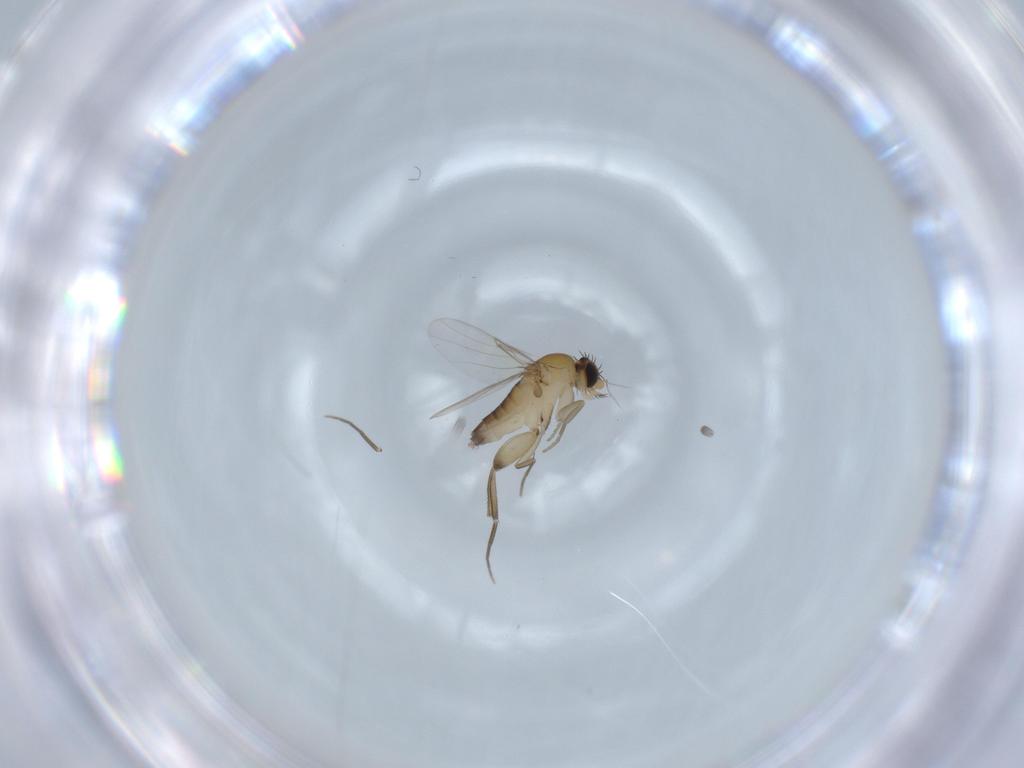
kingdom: Animalia
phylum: Arthropoda
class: Insecta
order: Diptera
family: Phoridae
